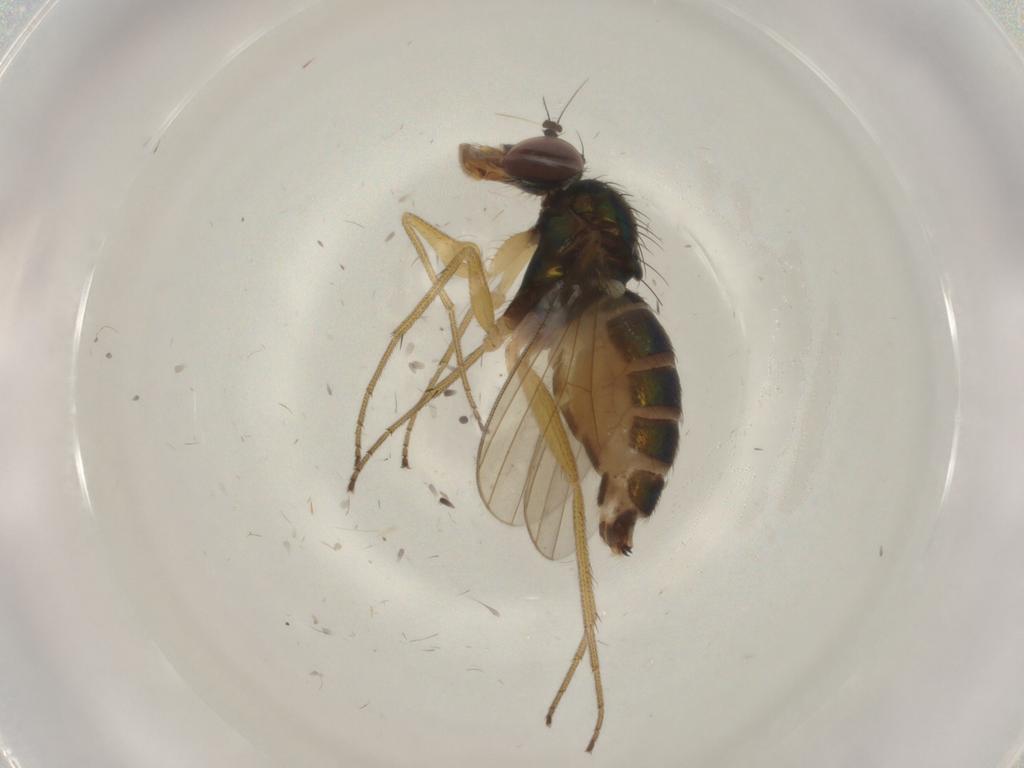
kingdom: Animalia
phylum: Arthropoda
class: Insecta
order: Diptera
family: Dolichopodidae
